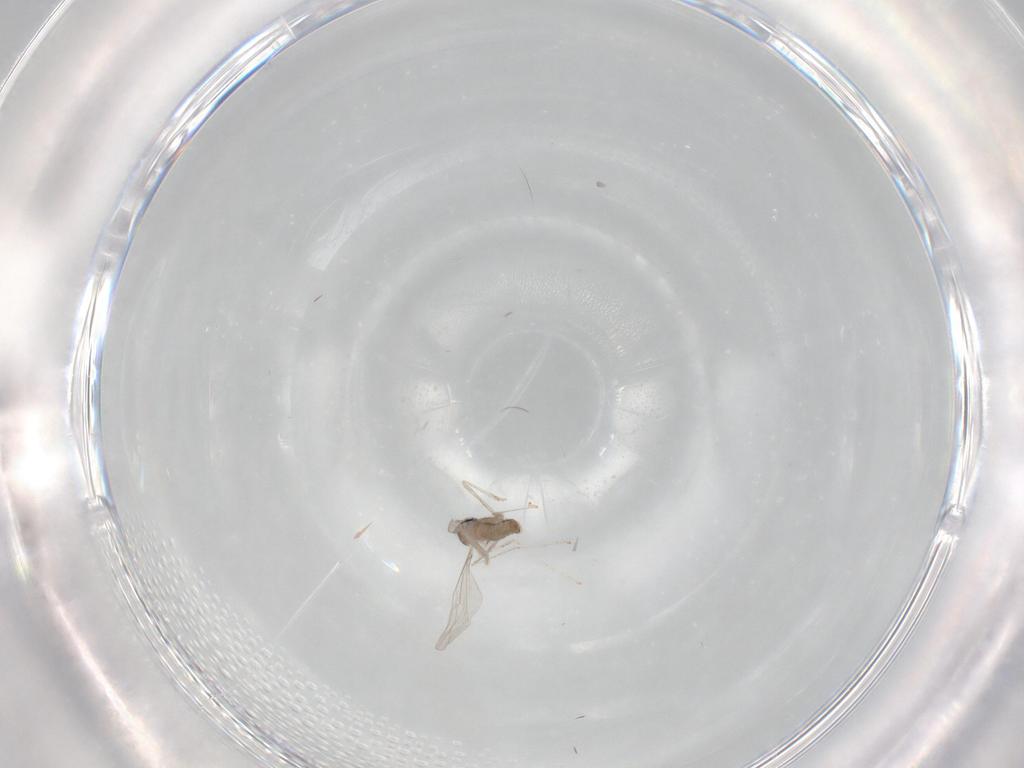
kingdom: Animalia
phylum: Arthropoda
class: Insecta
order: Diptera
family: Cecidomyiidae
